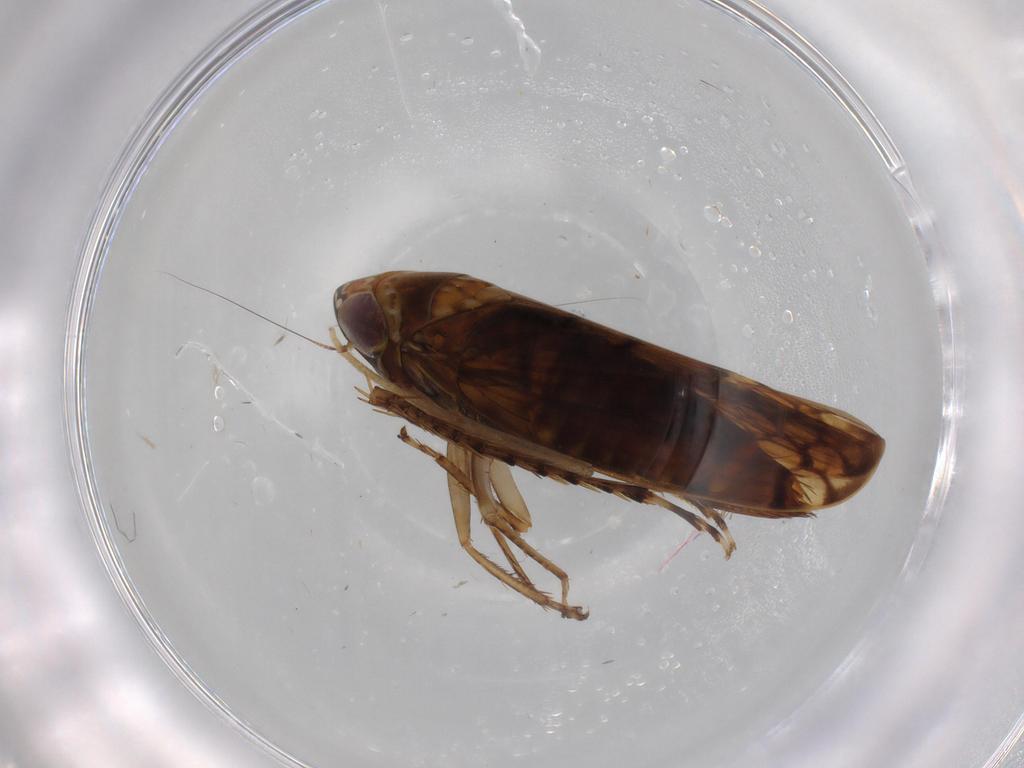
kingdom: Animalia
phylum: Arthropoda
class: Insecta
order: Hemiptera
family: Cicadellidae
